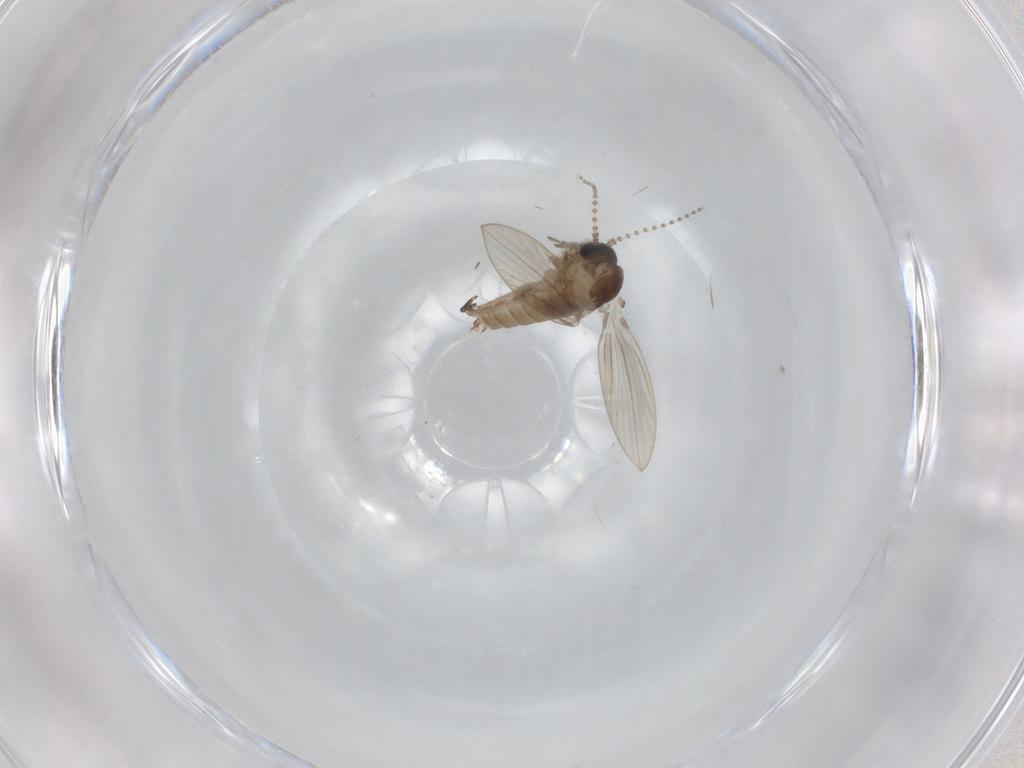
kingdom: Animalia
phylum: Arthropoda
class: Insecta
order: Diptera
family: Psychodidae
